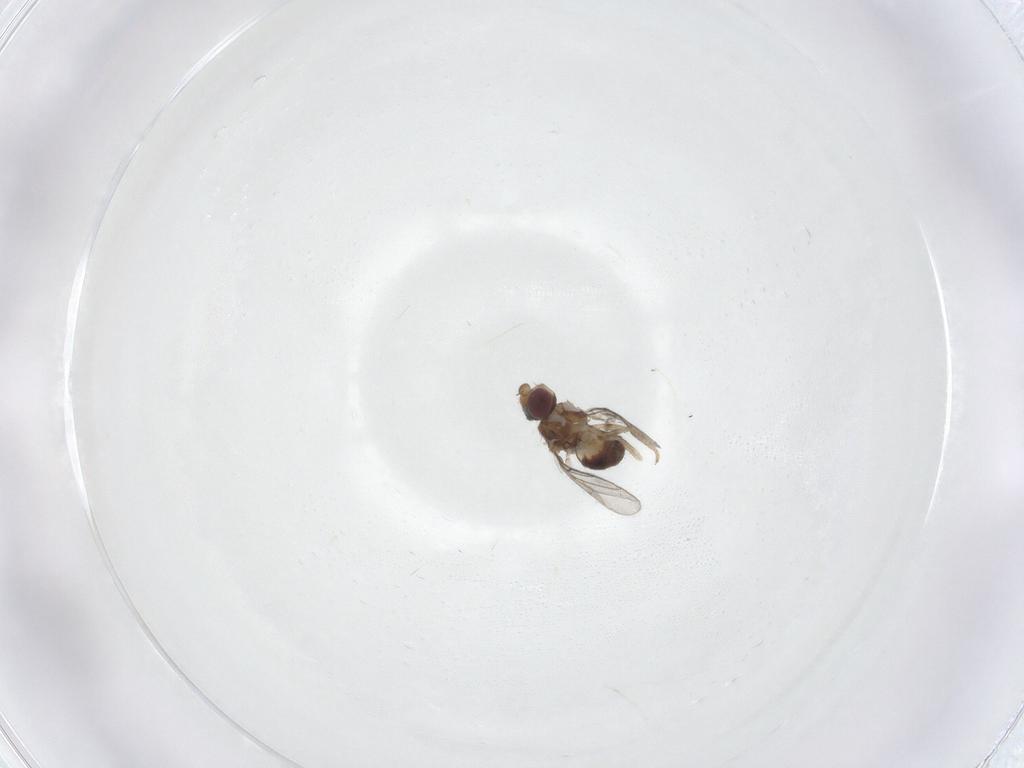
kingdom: Animalia
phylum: Arthropoda
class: Insecta
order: Diptera
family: Chloropidae
